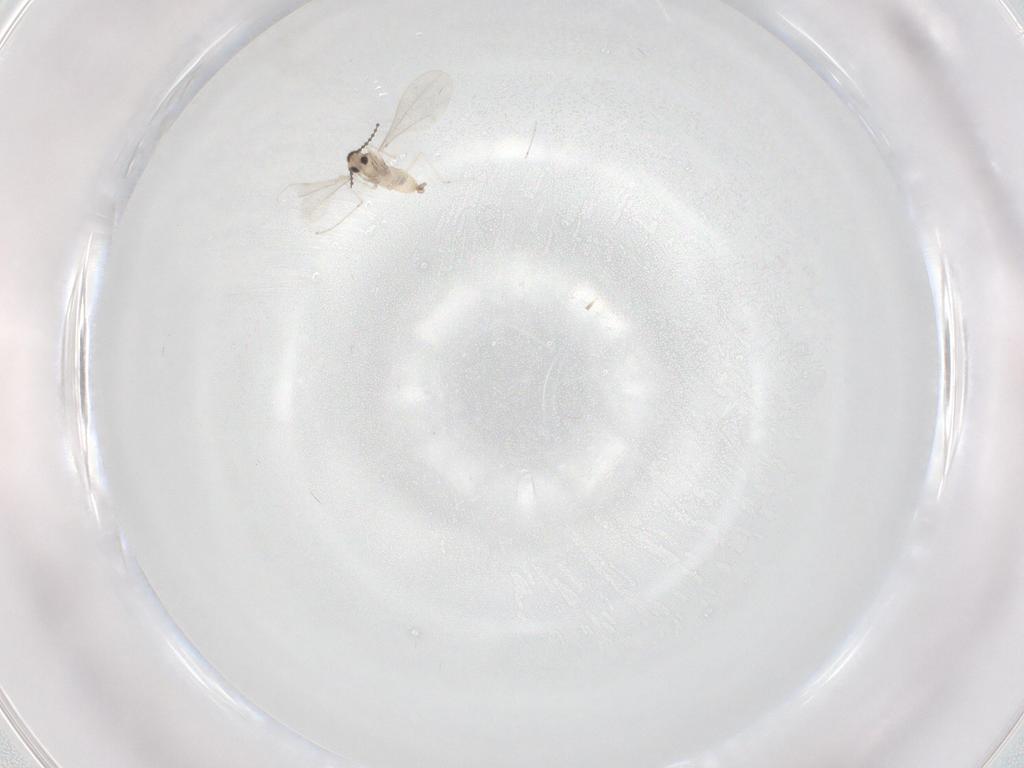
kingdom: Animalia
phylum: Arthropoda
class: Insecta
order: Diptera
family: Cecidomyiidae
